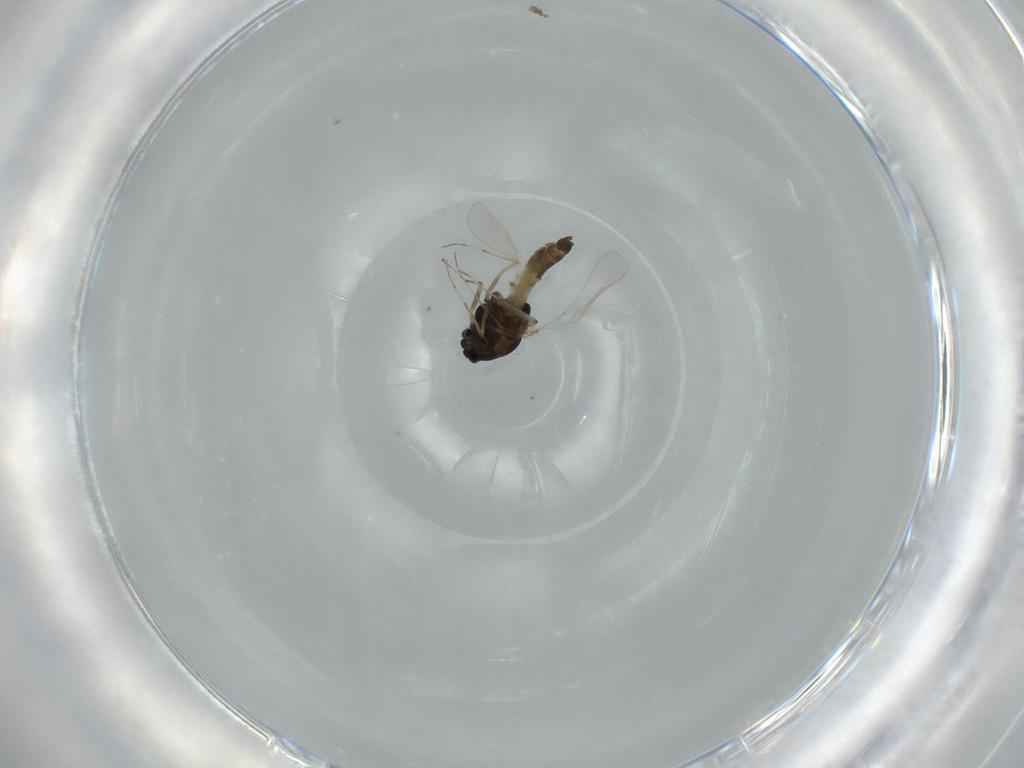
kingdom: Animalia
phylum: Arthropoda
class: Insecta
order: Diptera
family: Chironomidae
